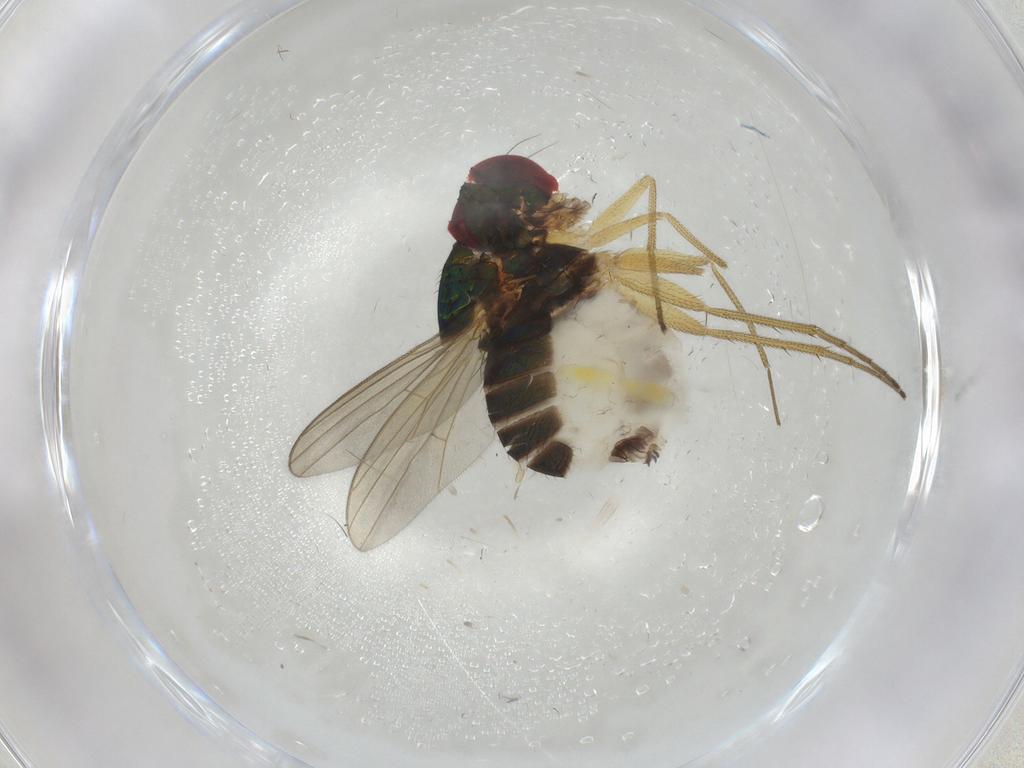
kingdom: Animalia
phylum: Arthropoda
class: Insecta
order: Diptera
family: Dolichopodidae
